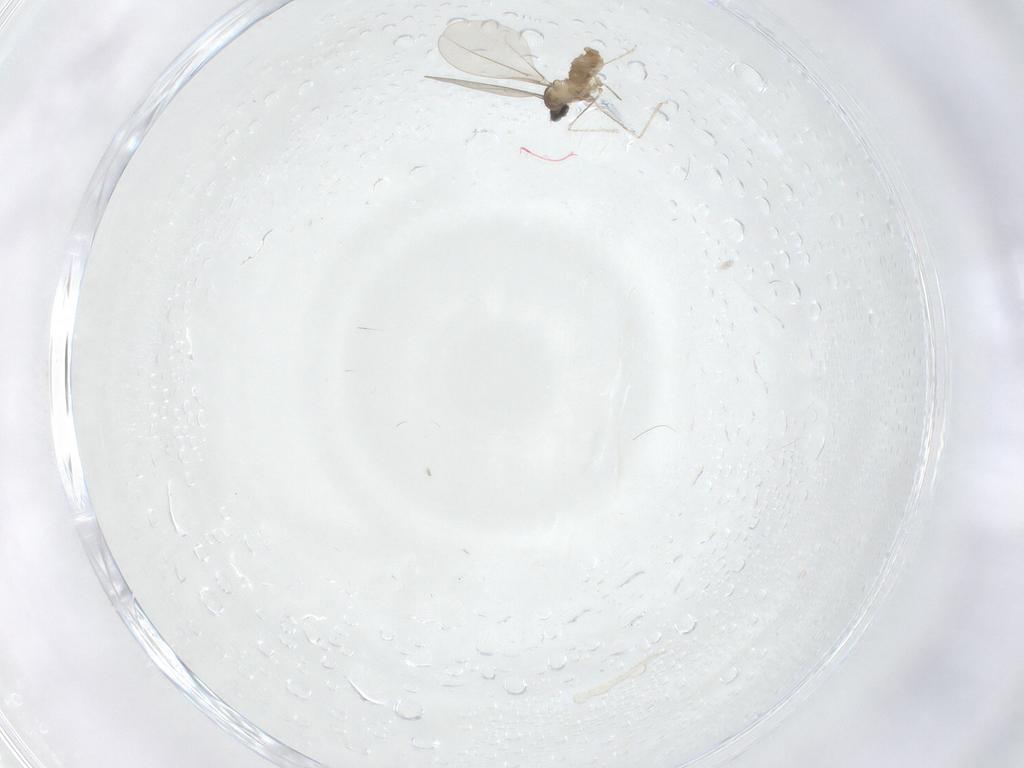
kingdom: Animalia
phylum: Arthropoda
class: Insecta
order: Diptera
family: Cecidomyiidae
